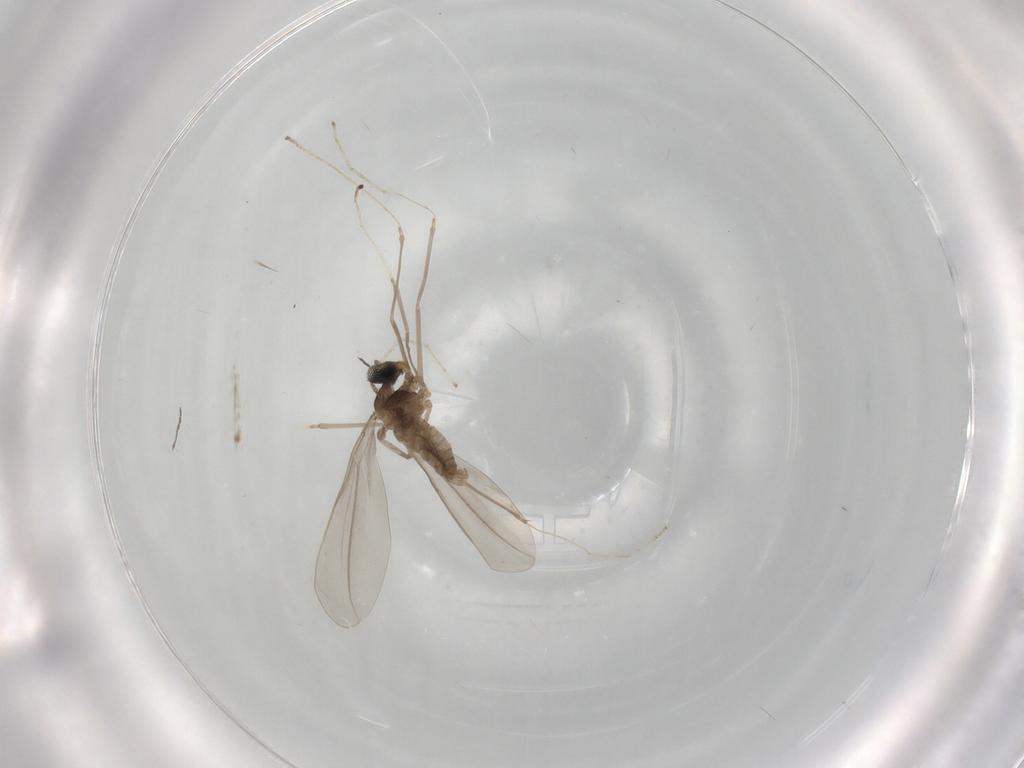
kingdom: Animalia
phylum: Arthropoda
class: Insecta
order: Diptera
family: Cecidomyiidae
